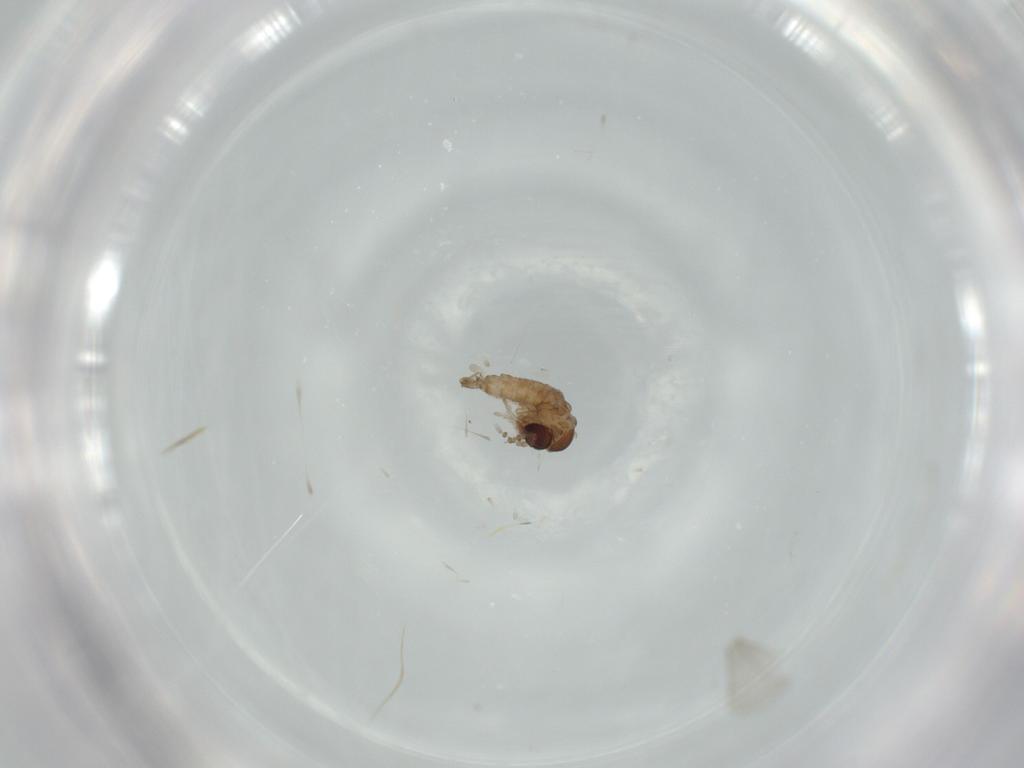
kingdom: Animalia
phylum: Arthropoda
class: Insecta
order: Diptera
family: Psychodidae
